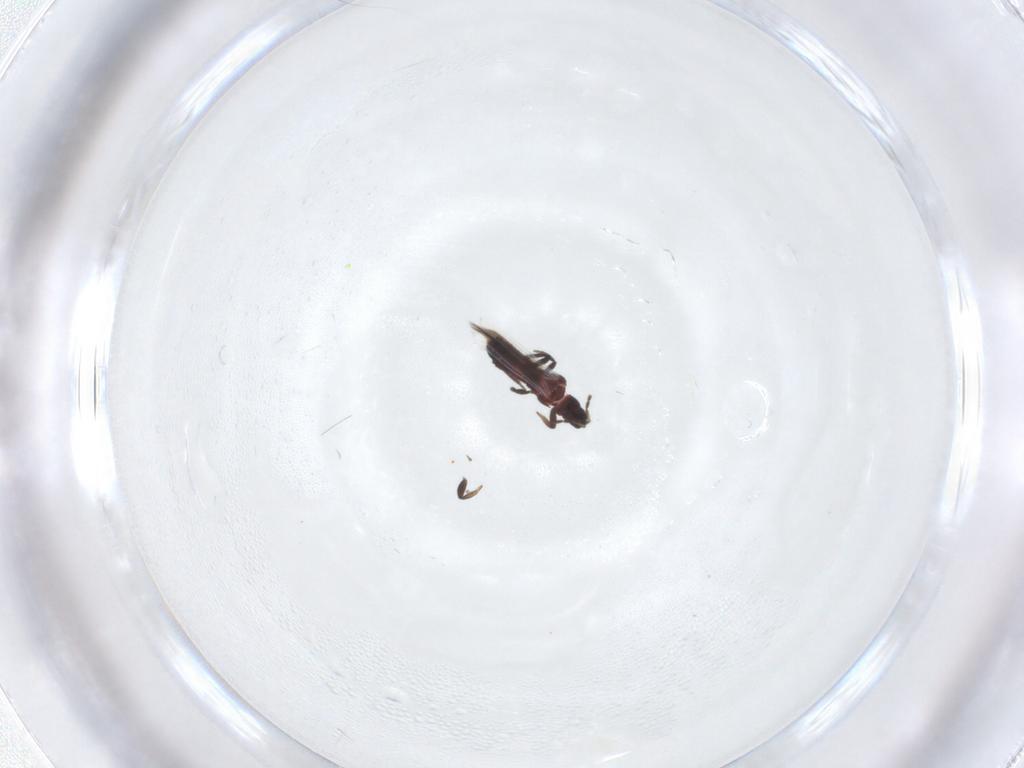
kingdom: Animalia
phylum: Arthropoda
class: Insecta
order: Thysanoptera
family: Aeolothripidae
